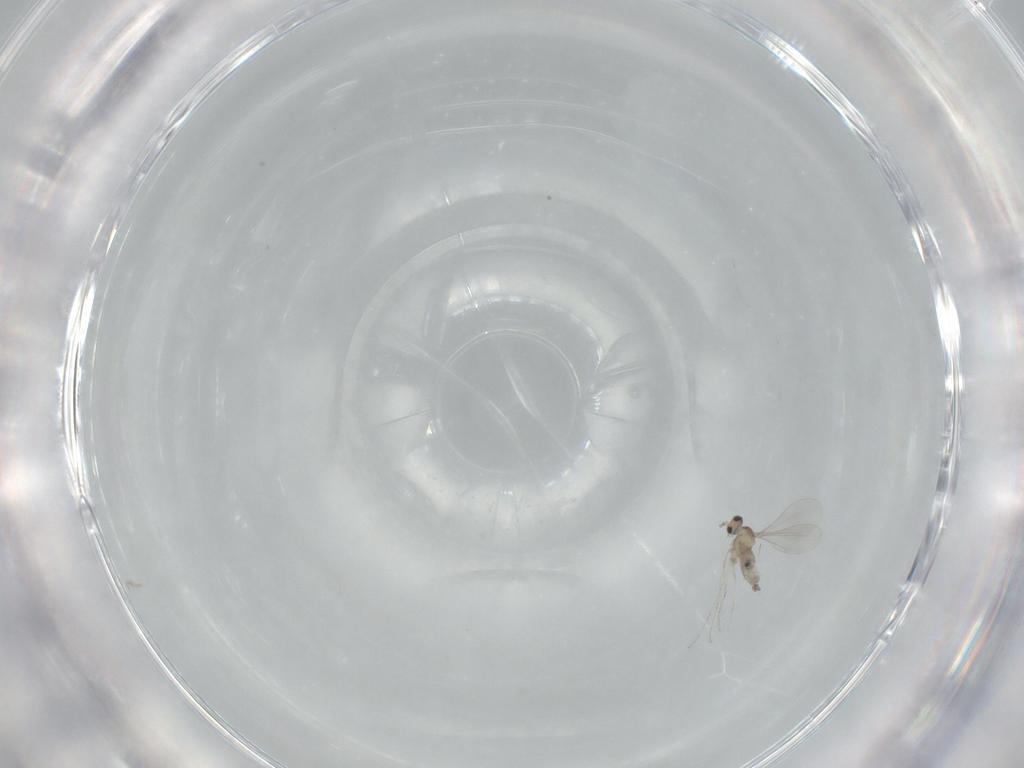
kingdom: Animalia
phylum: Arthropoda
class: Insecta
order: Diptera
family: Cecidomyiidae
